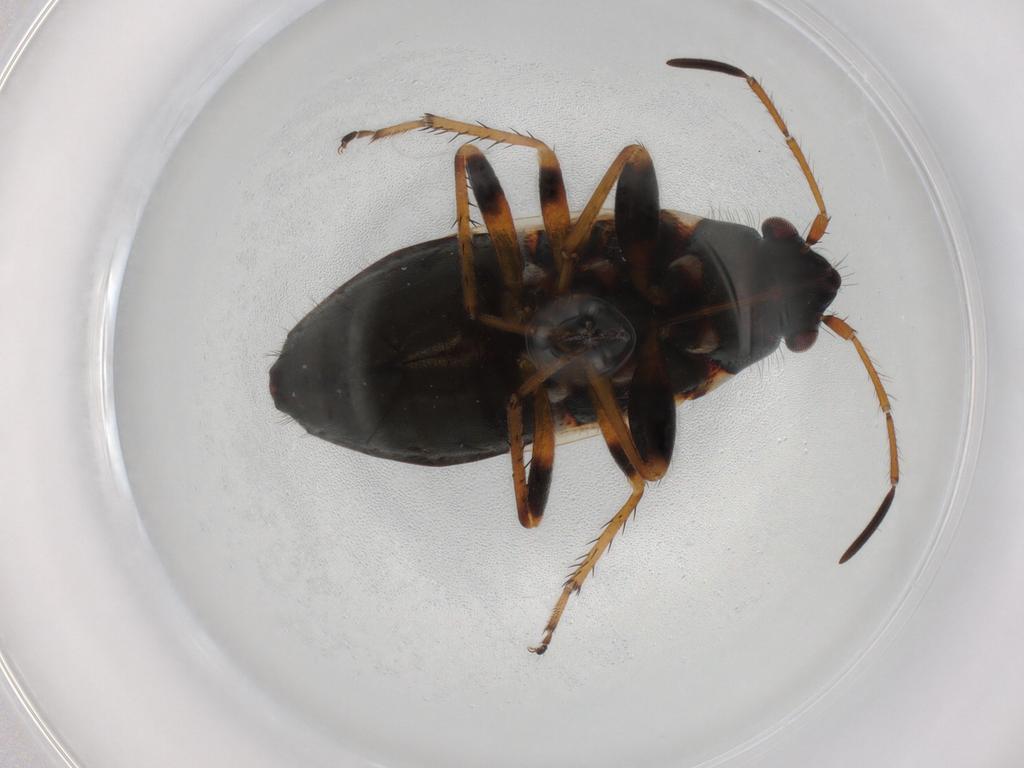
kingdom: Animalia
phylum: Arthropoda
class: Insecta
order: Hemiptera
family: Rhyparochromidae
